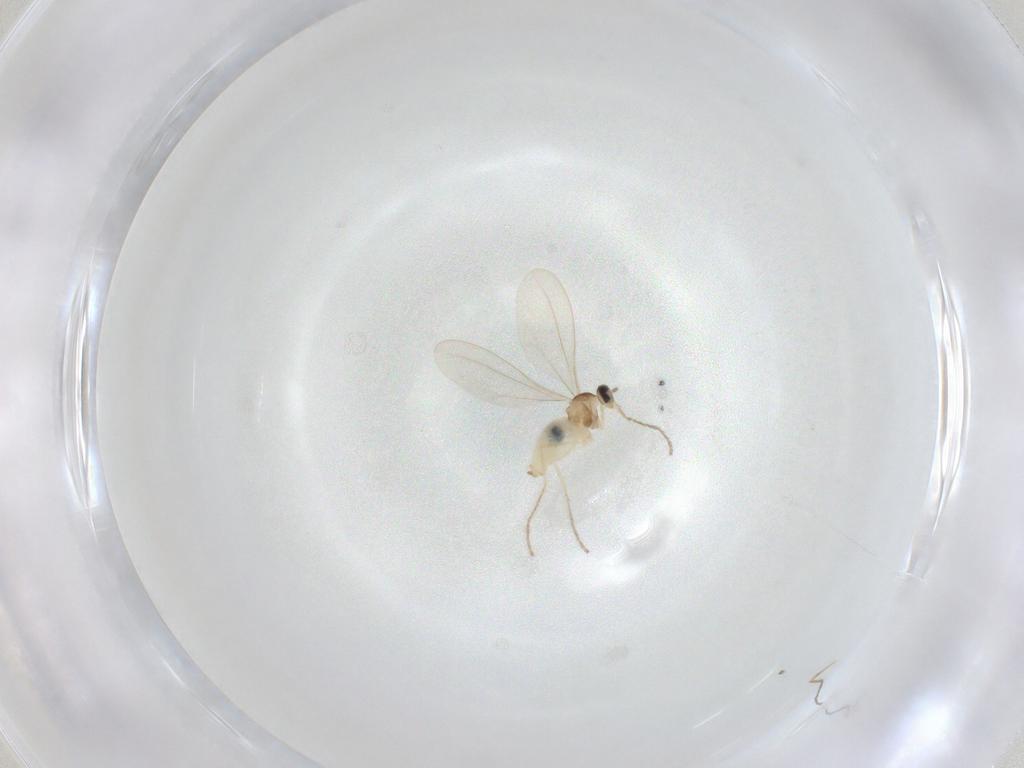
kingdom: Animalia
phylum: Arthropoda
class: Insecta
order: Diptera
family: Cecidomyiidae
